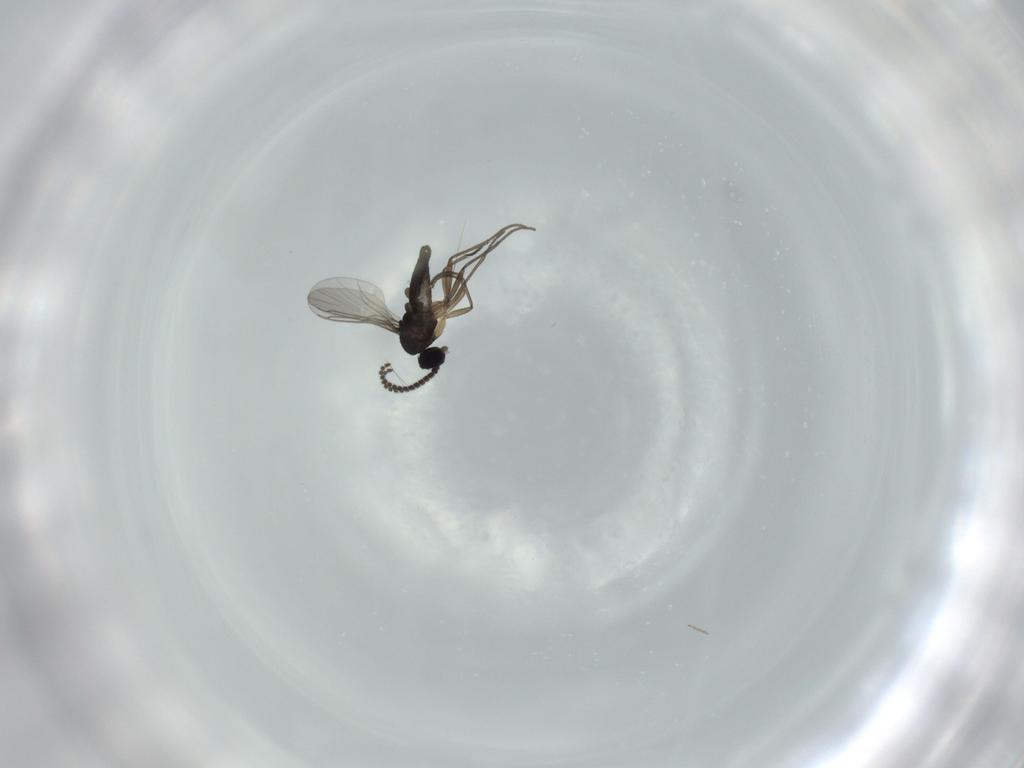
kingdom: Animalia
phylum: Arthropoda
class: Insecta
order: Diptera
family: Sciaridae
